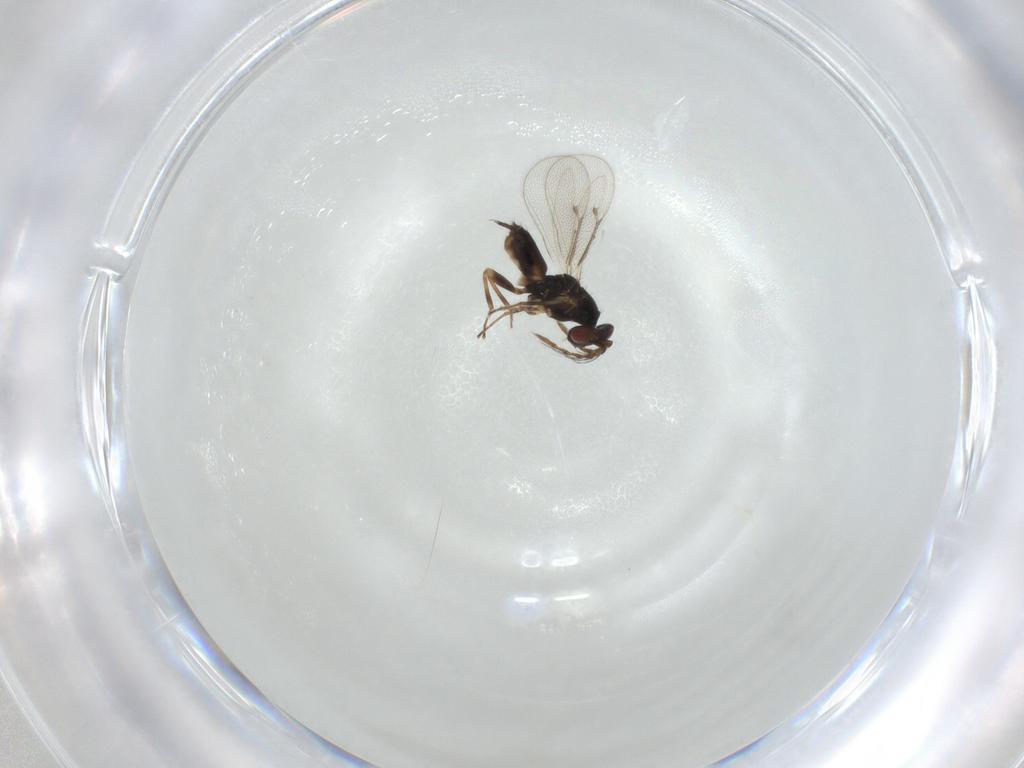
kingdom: Animalia
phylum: Arthropoda
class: Insecta
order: Hymenoptera
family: Eulophidae
